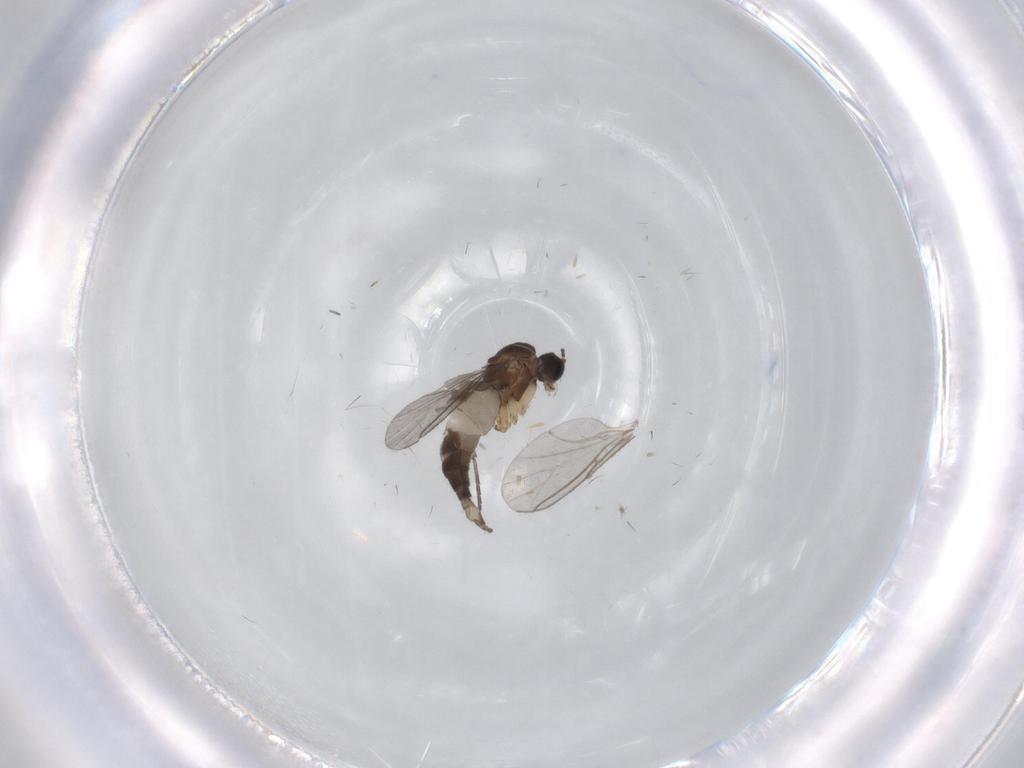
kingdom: Animalia
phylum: Arthropoda
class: Insecta
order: Diptera
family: Sciaridae
